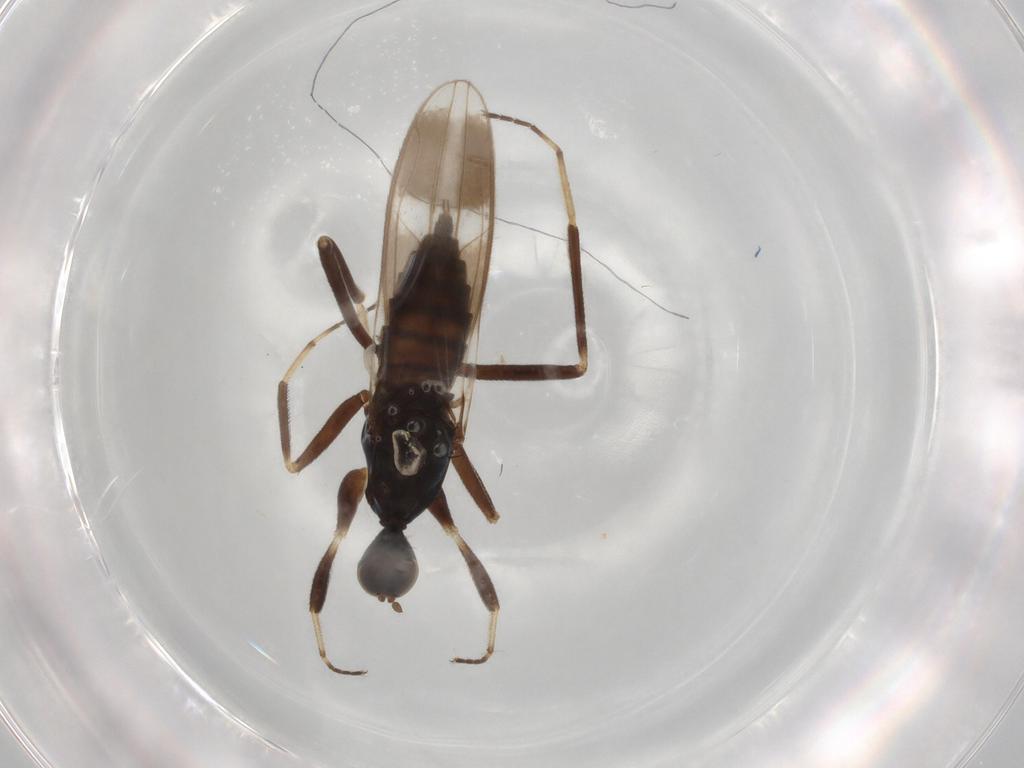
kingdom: Animalia
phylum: Arthropoda
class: Insecta
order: Diptera
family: Hybotidae
